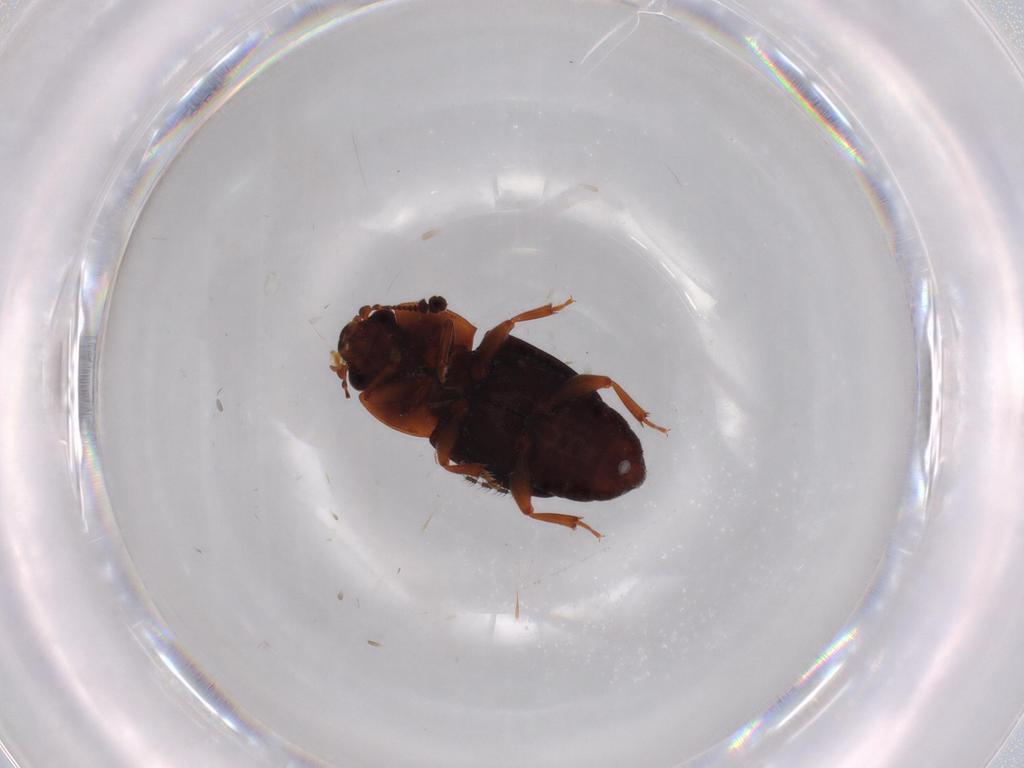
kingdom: Animalia
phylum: Arthropoda
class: Insecta
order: Coleoptera
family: Nitidulidae
